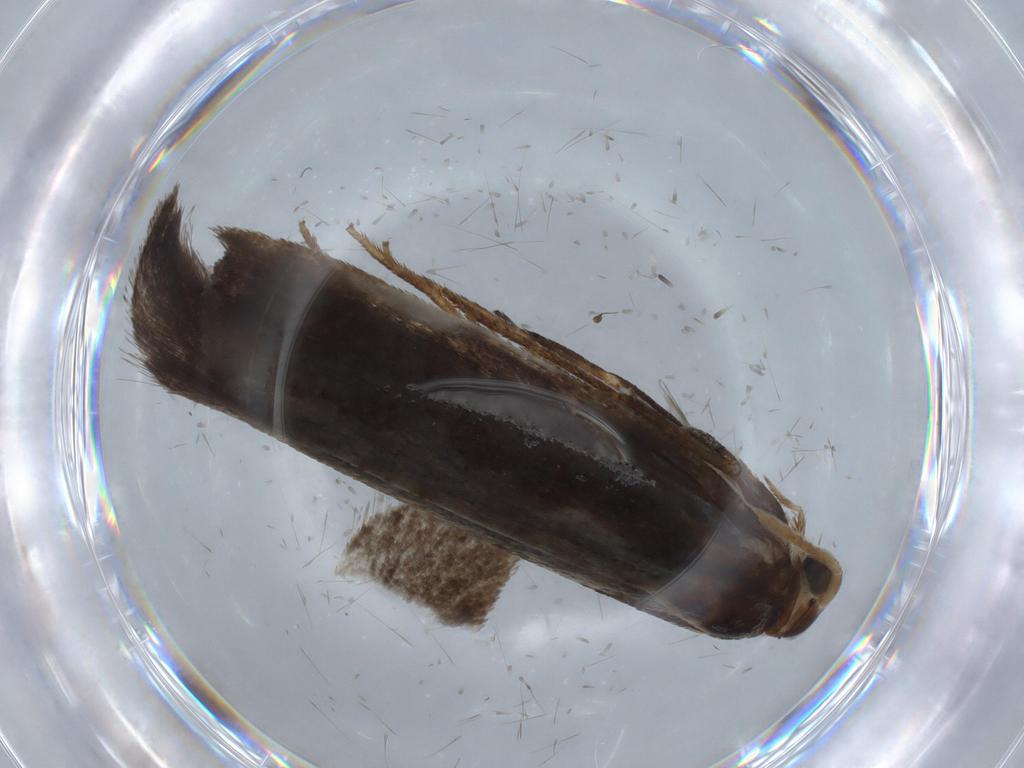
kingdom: Animalia
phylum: Arthropoda
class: Insecta
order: Lepidoptera
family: Nepticulidae
